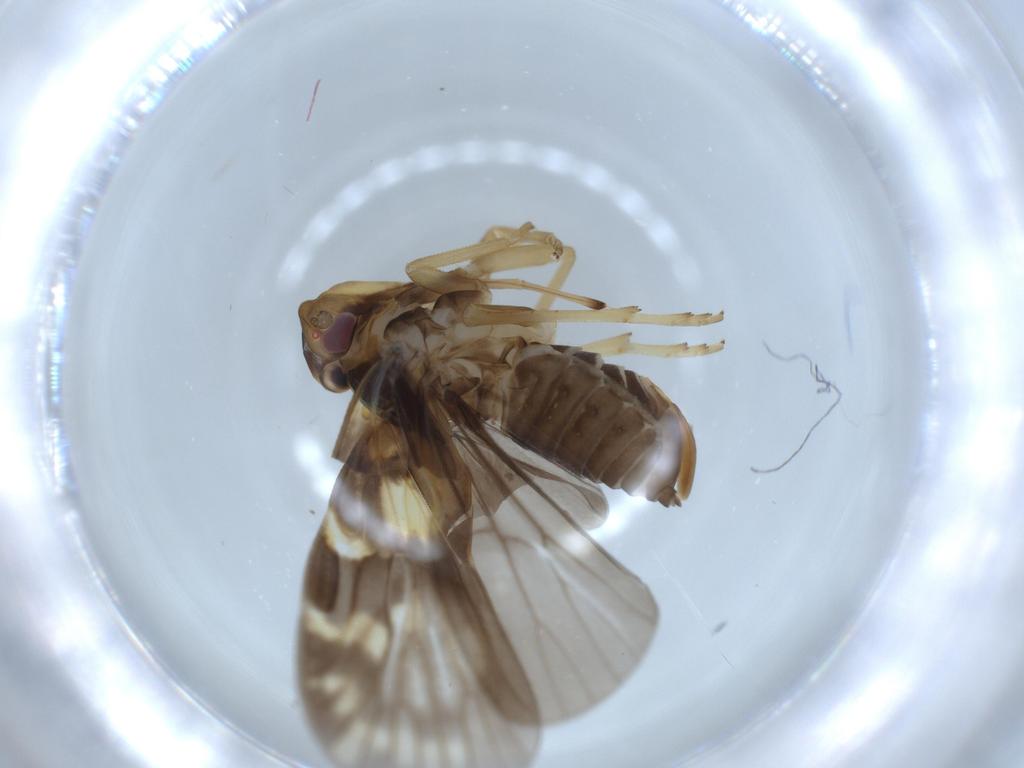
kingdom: Animalia
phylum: Arthropoda
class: Insecta
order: Hemiptera
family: Cixiidae
